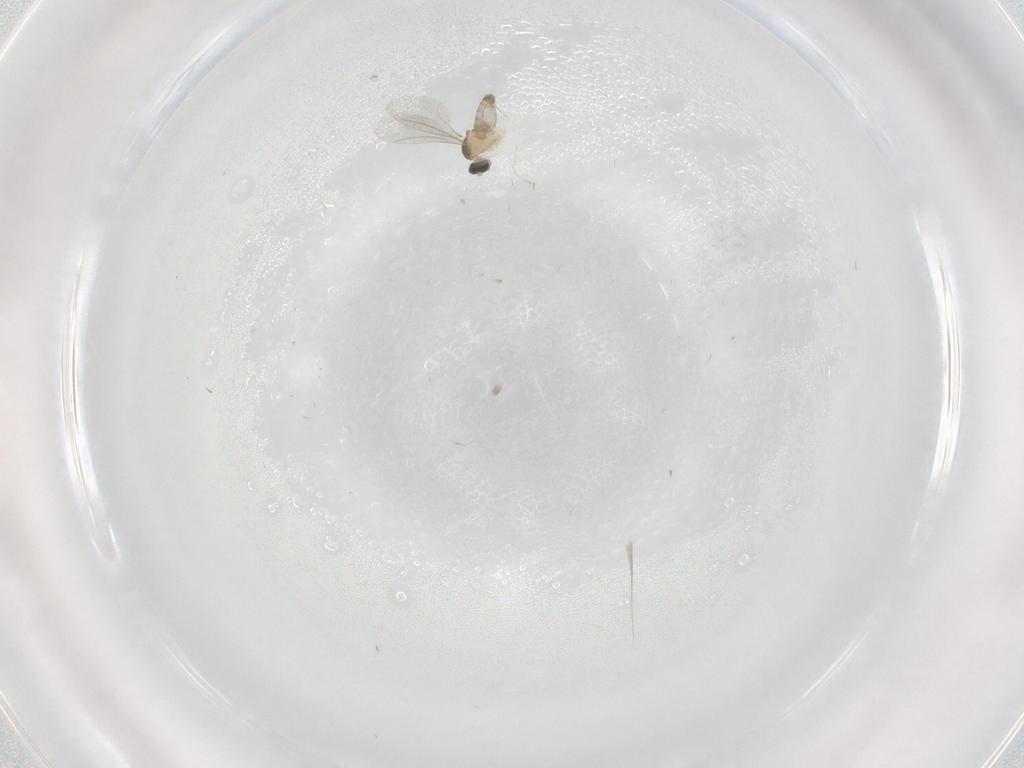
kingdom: Animalia
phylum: Arthropoda
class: Insecta
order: Diptera
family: Cecidomyiidae
